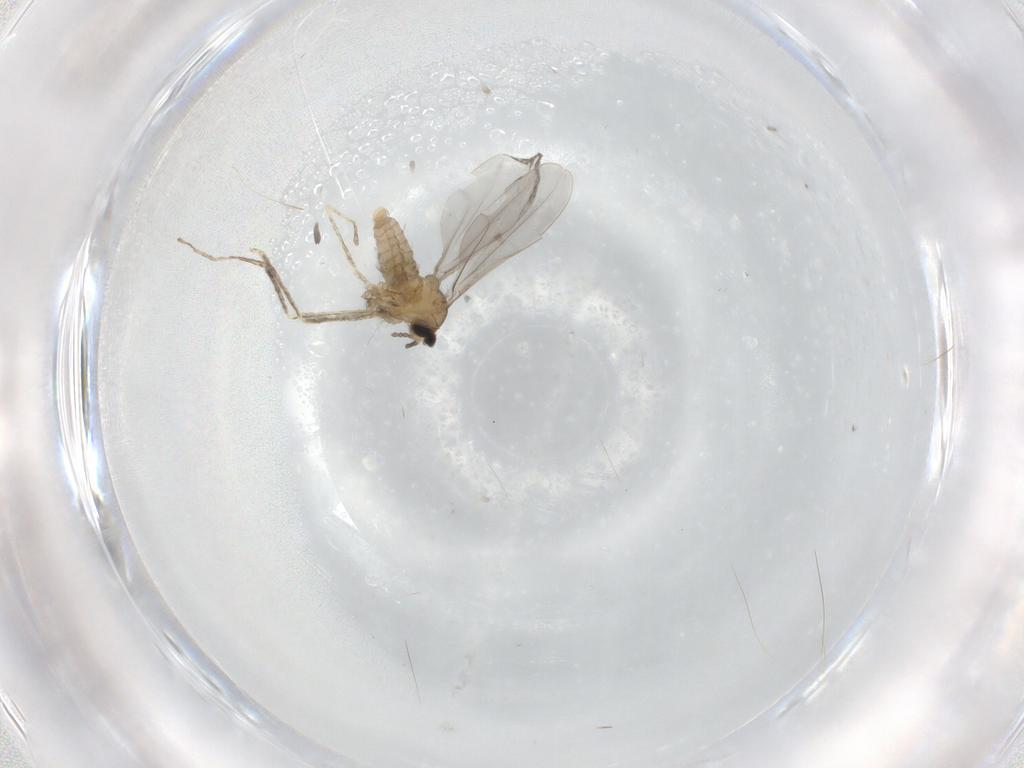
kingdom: Animalia
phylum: Arthropoda
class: Insecta
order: Diptera
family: Cecidomyiidae
